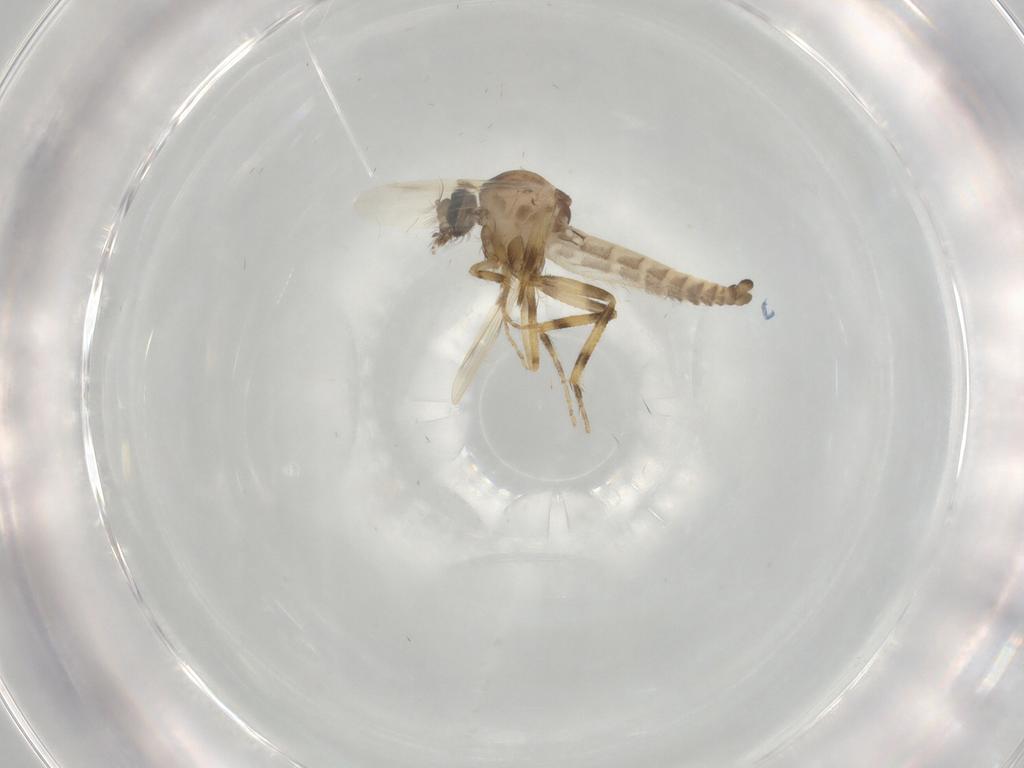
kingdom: Animalia
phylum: Arthropoda
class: Insecta
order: Diptera
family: Ceratopogonidae
